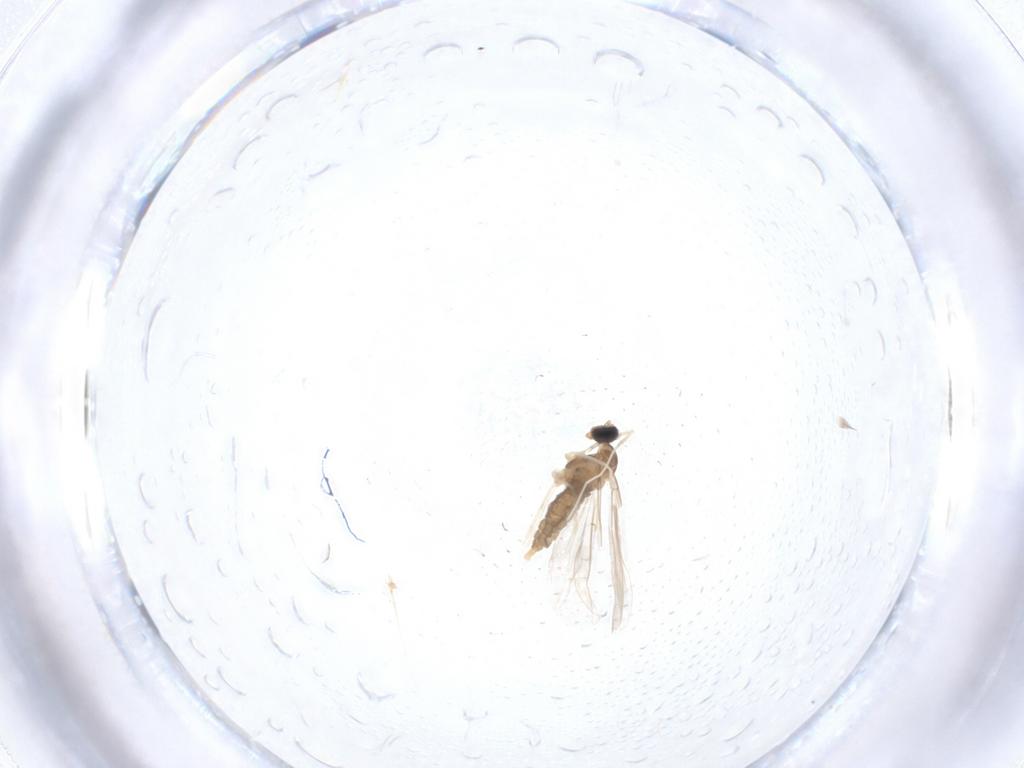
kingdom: Animalia
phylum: Arthropoda
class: Insecta
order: Diptera
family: Cecidomyiidae
